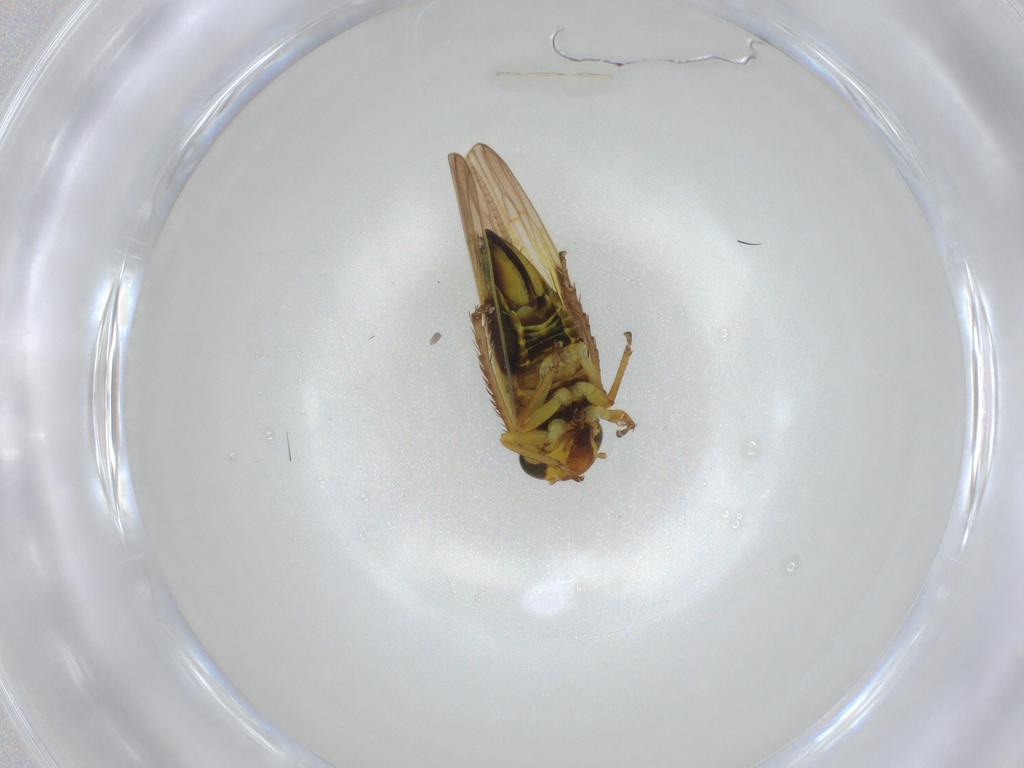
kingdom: Animalia
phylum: Arthropoda
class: Insecta
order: Hemiptera
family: Cicadellidae
